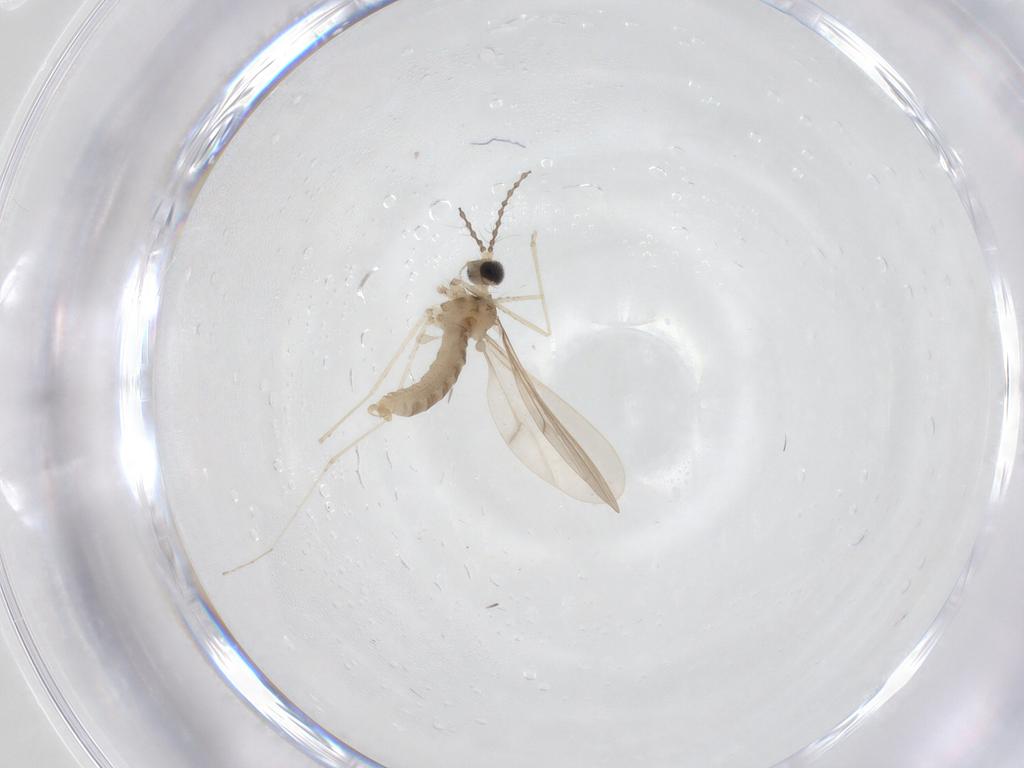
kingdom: Animalia
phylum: Arthropoda
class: Insecta
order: Diptera
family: Cecidomyiidae
